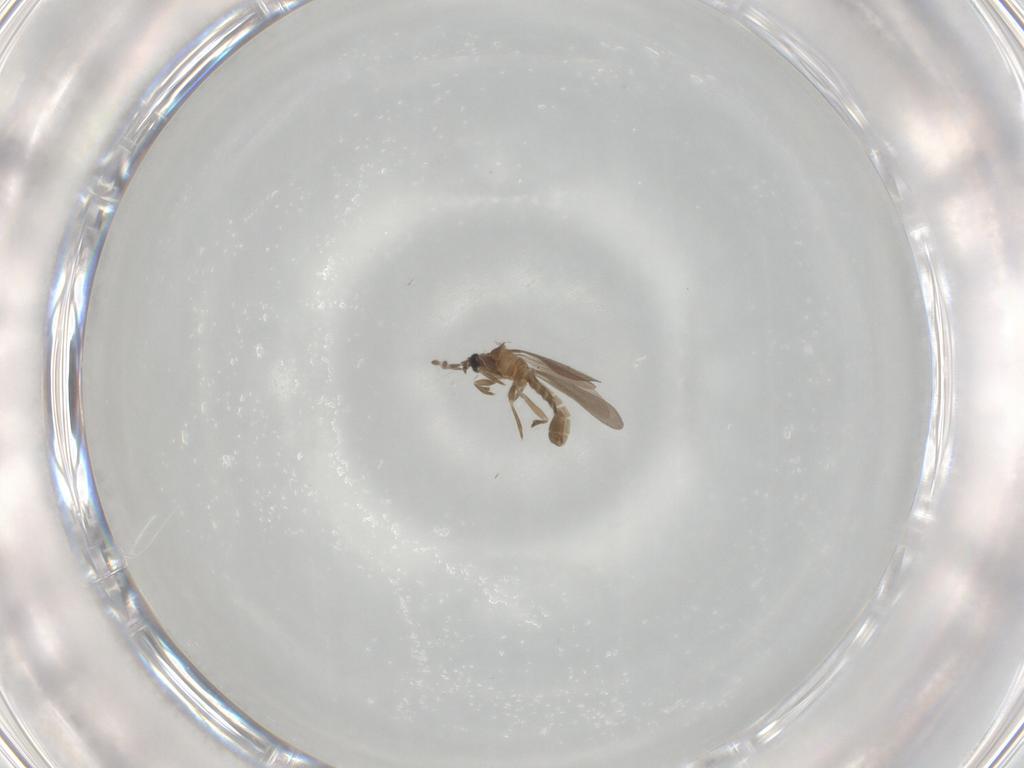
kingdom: Animalia
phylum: Arthropoda
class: Insecta
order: Hemiptera
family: Enicocephalidae
